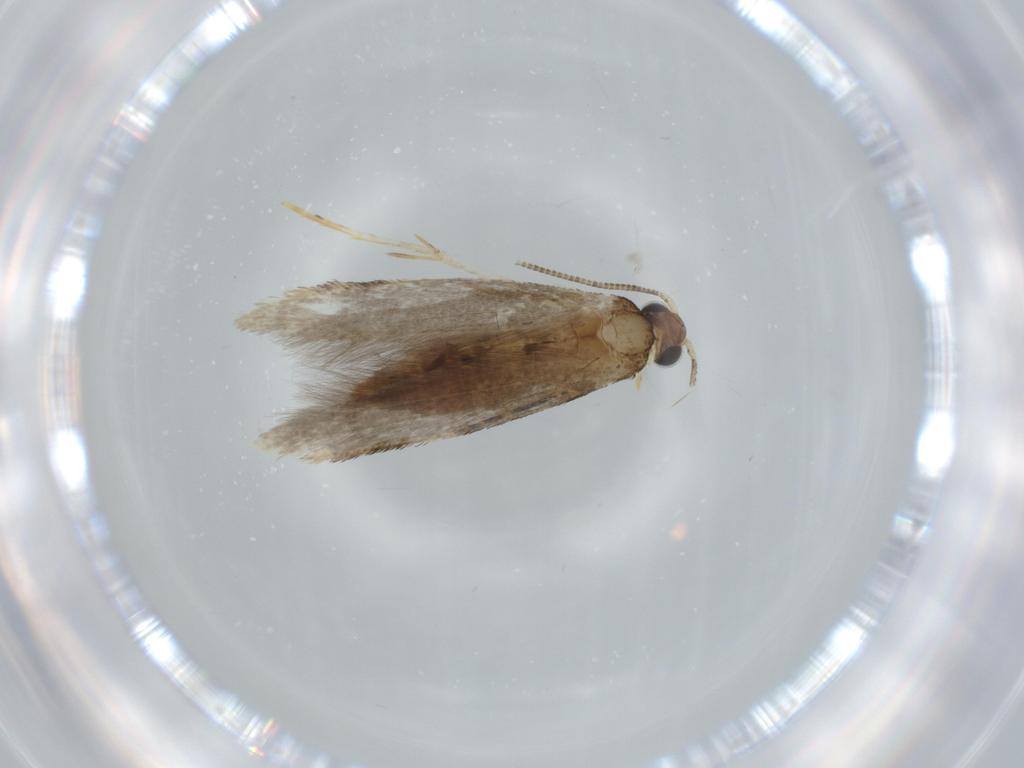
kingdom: Animalia
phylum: Arthropoda
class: Insecta
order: Lepidoptera
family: Tineidae
